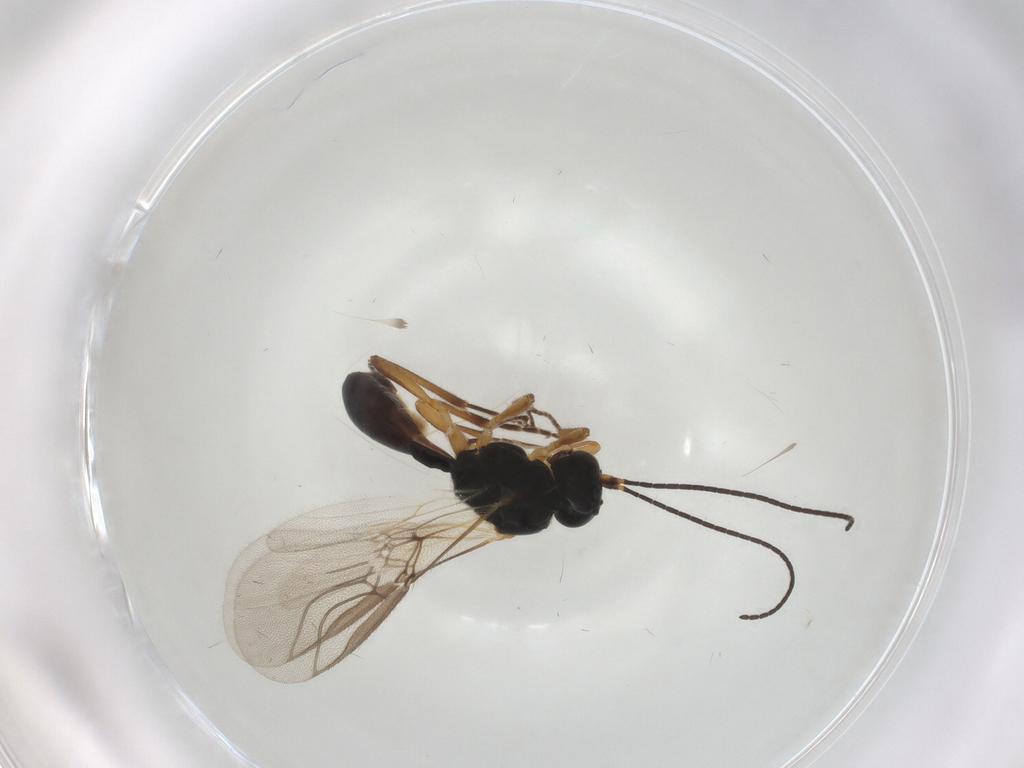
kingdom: Animalia
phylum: Arthropoda
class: Insecta
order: Hymenoptera
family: Braconidae
